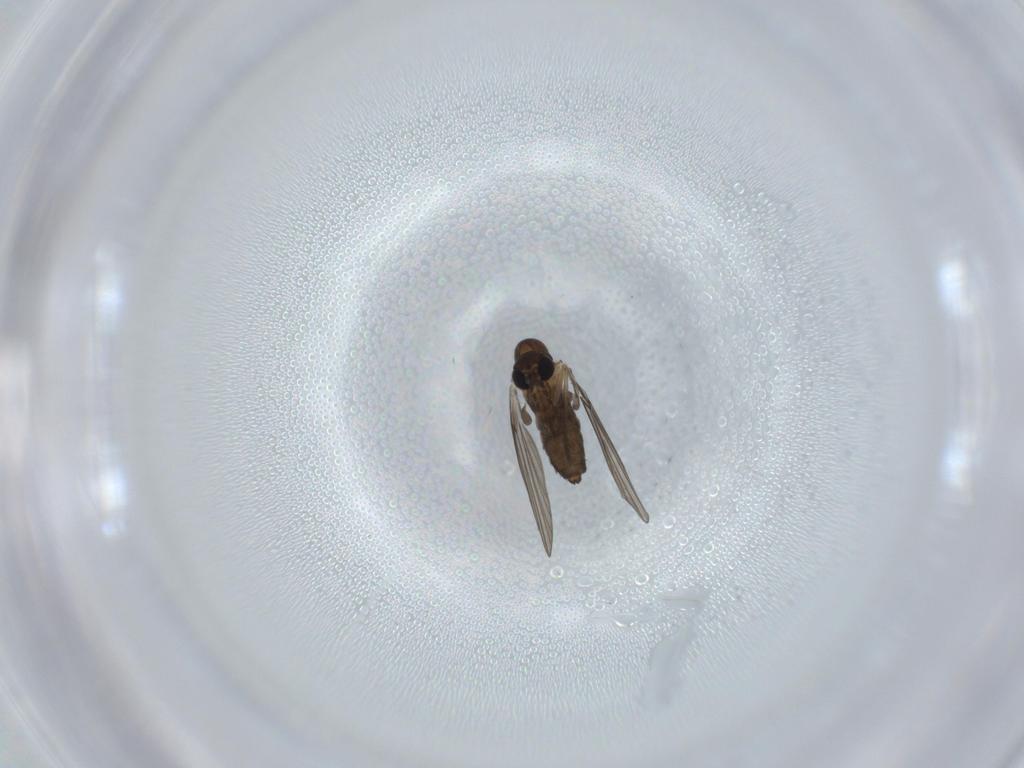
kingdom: Animalia
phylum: Arthropoda
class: Insecta
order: Diptera
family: Psychodidae
